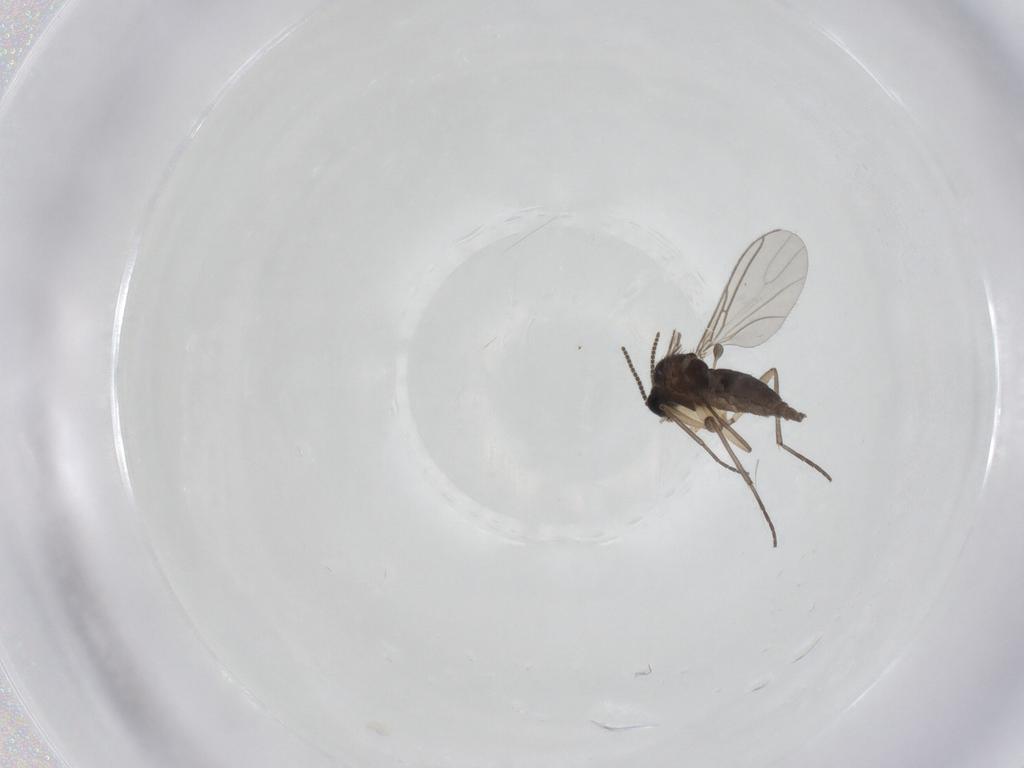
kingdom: Animalia
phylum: Arthropoda
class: Insecta
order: Diptera
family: Sciaridae
